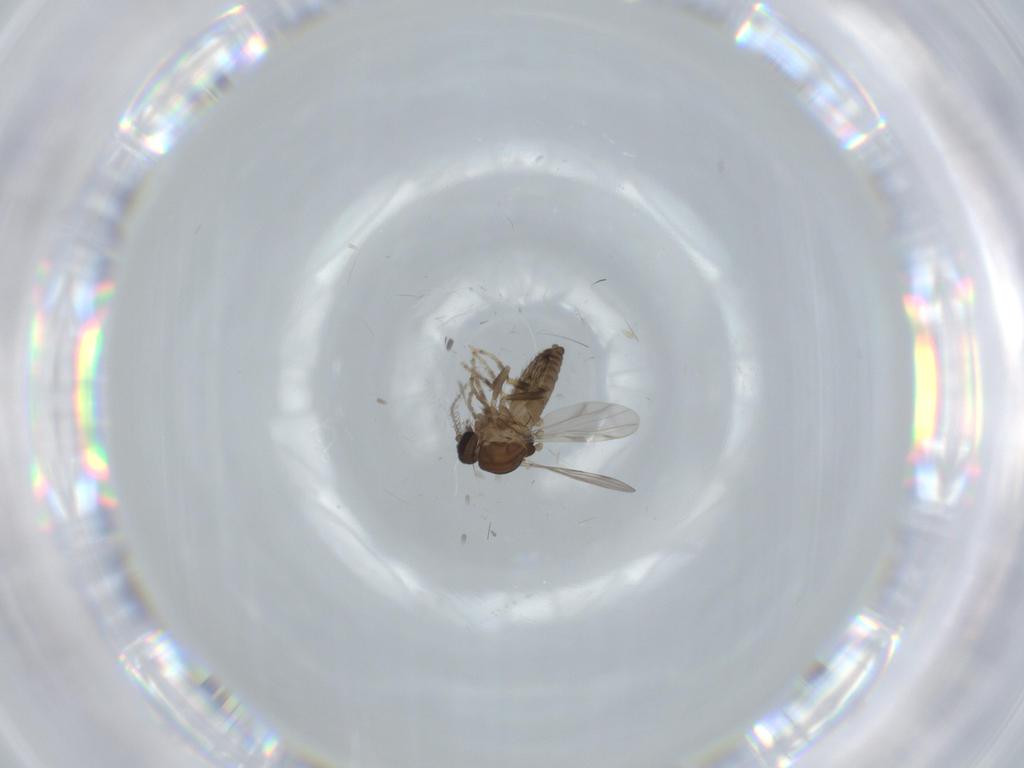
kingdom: Animalia
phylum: Arthropoda
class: Insecta
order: Diptera
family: Ceratopogonidae
